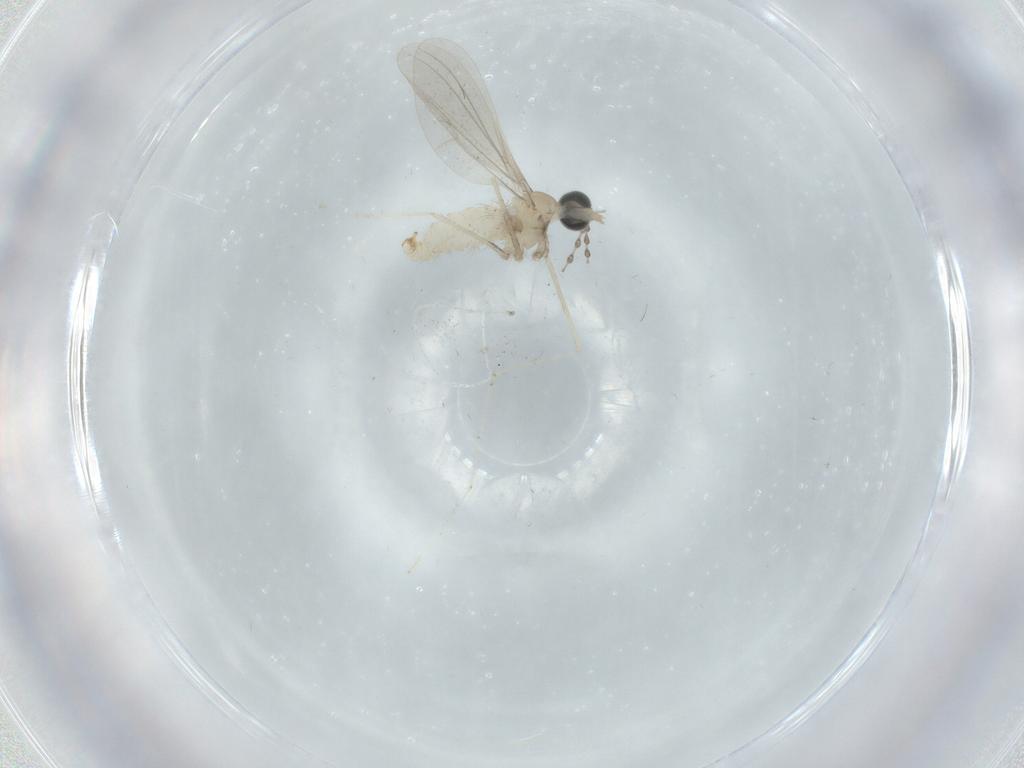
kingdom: Animalia
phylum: Arthropoda
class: Insecta
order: Diptera
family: Cecidomyiidae
